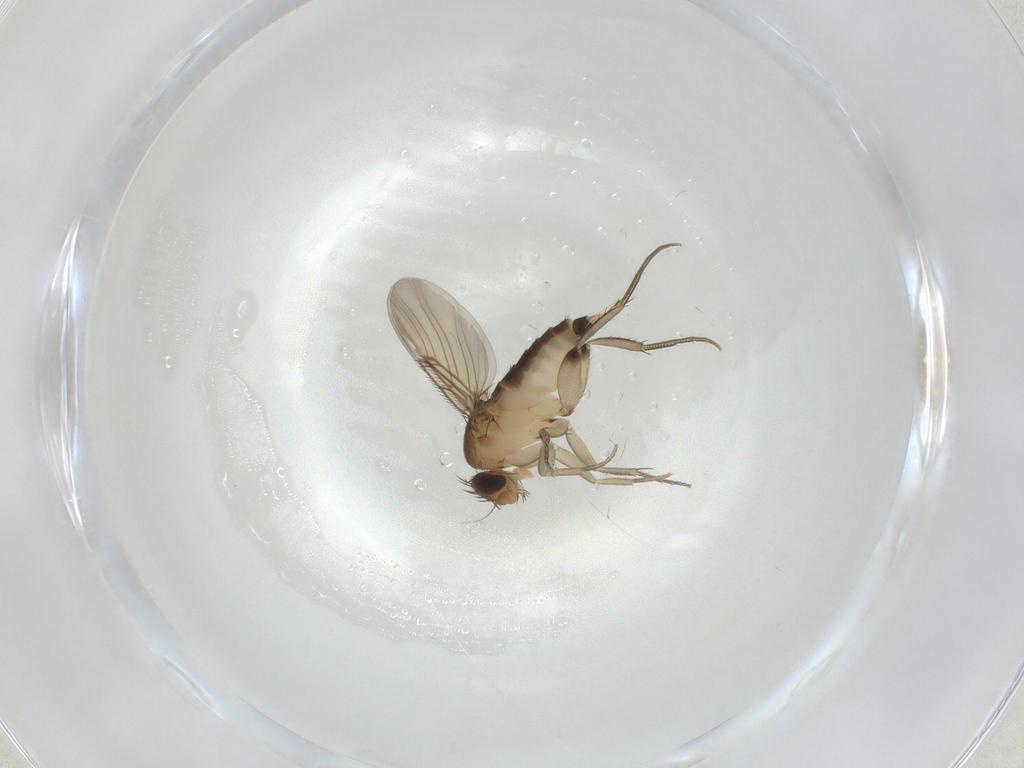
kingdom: Animalia
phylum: Arthropoda
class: Insecta
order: Diptera
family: Phoridae
